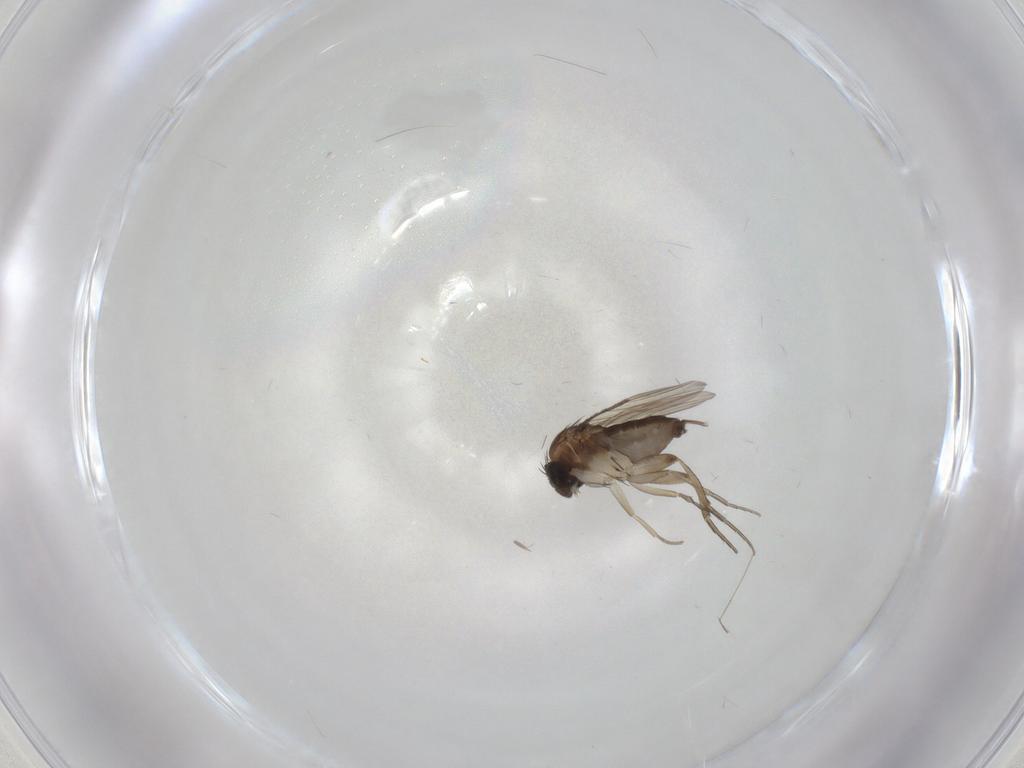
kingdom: Animalia
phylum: Arthropoda
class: Insecta
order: Diptera
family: Phoridae
